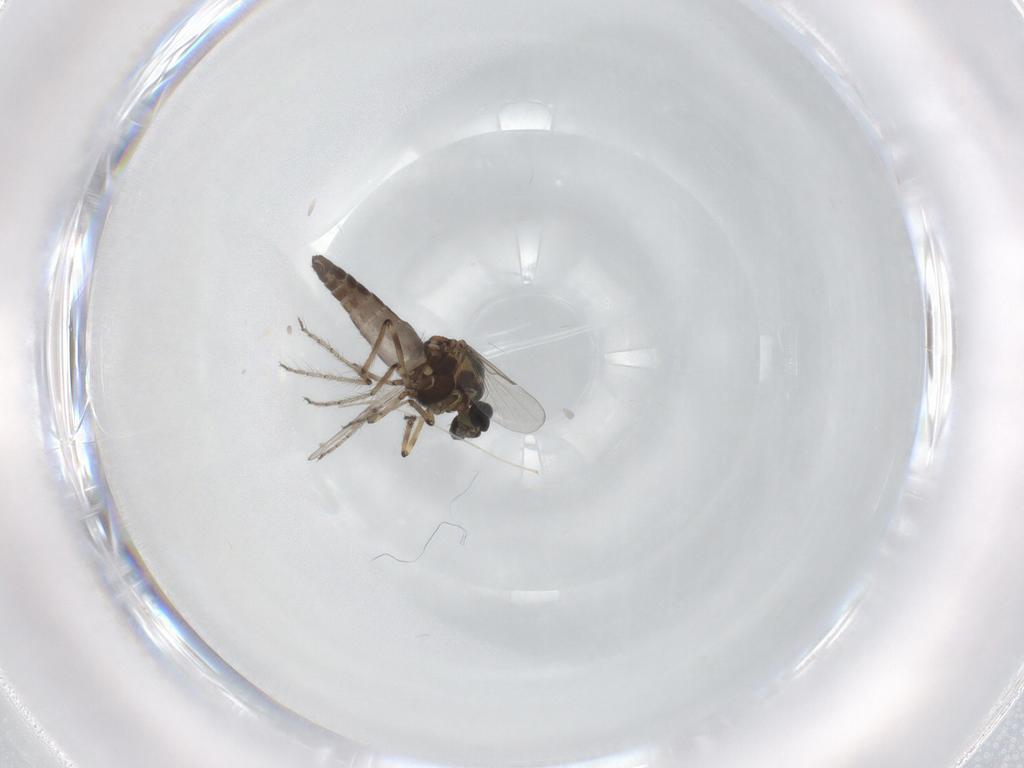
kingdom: Animalia
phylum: Arthropoda
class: Insecta
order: Diptera
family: Ceratopogonidae
